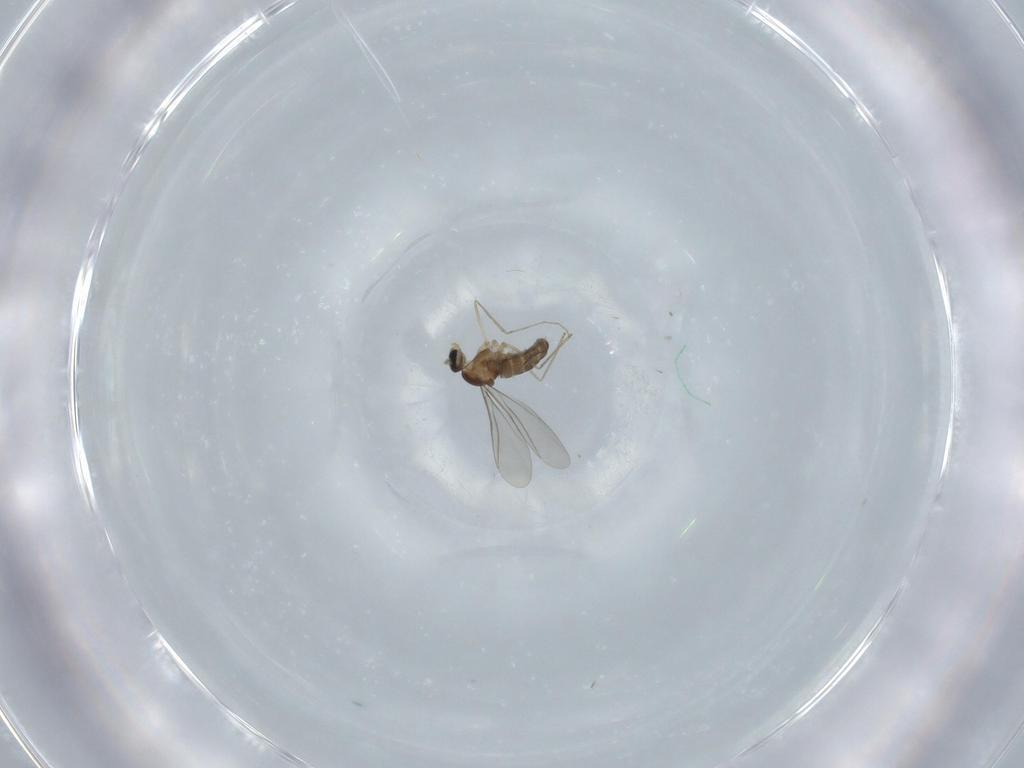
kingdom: Animalia
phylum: Arthropoda
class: Insecta
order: Diptera
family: Cecidomyiidae
